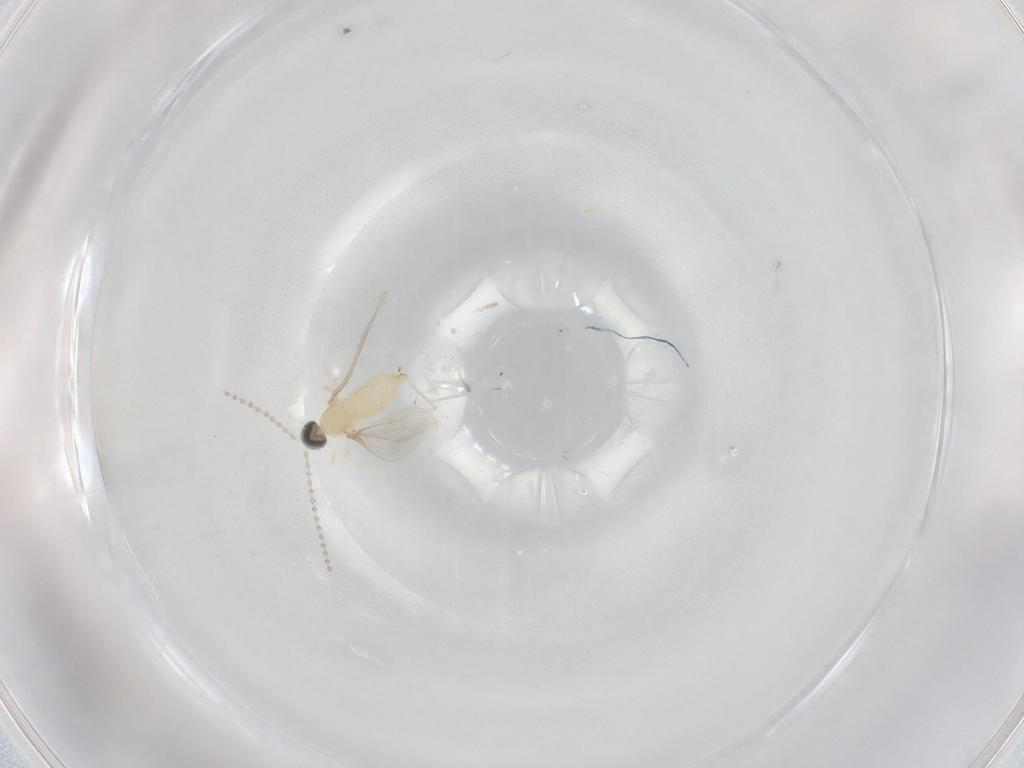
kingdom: Animalia
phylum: Arthropoda
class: Insecta
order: Diptera
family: Cecidomyiidae
